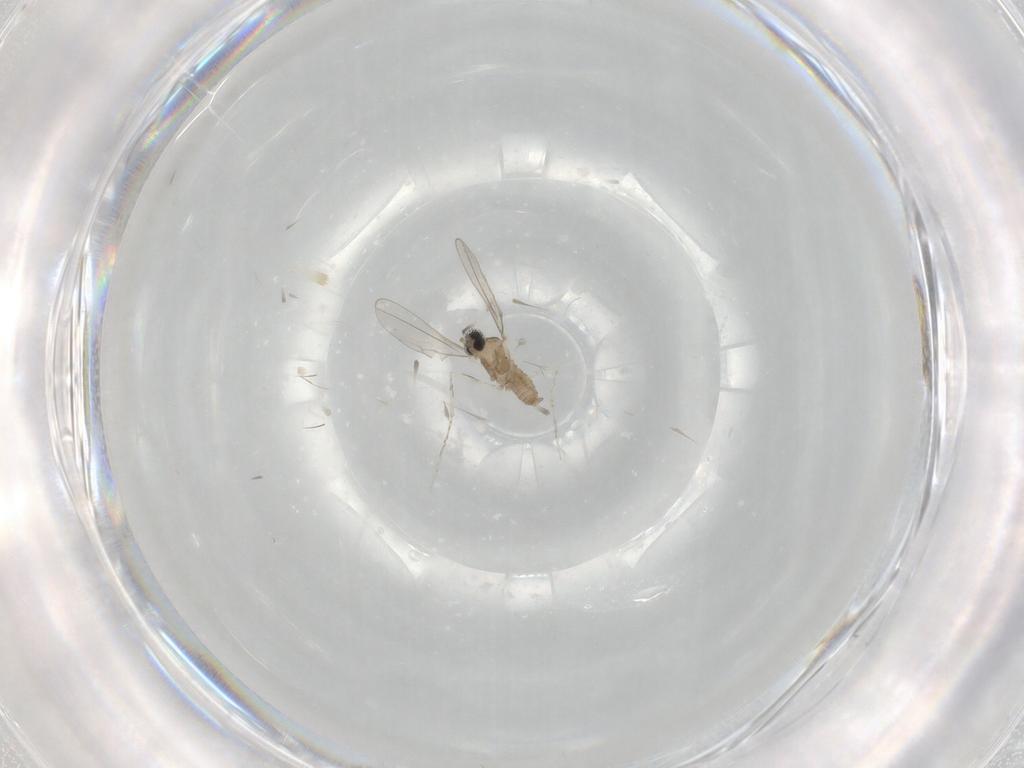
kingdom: Animalia
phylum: Arthropoda
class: Insecta
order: Diptera
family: Cecidomyiidae
